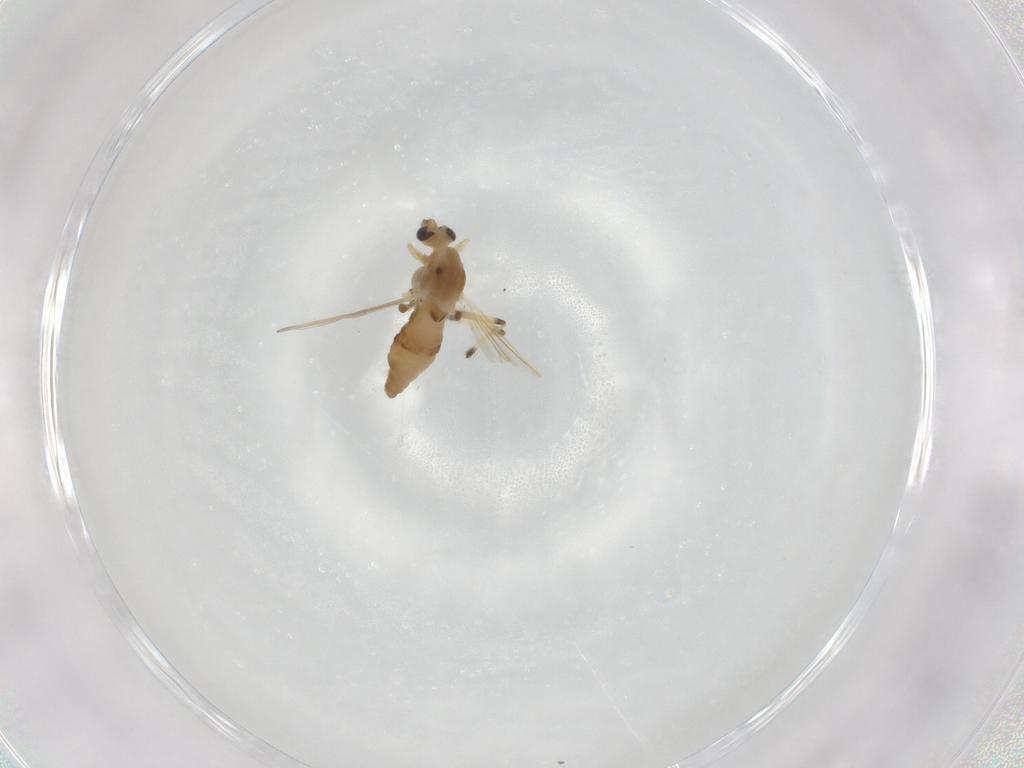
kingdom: Animalia
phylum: Arthropoda
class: Insecta
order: Diptera
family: Chironomidae
